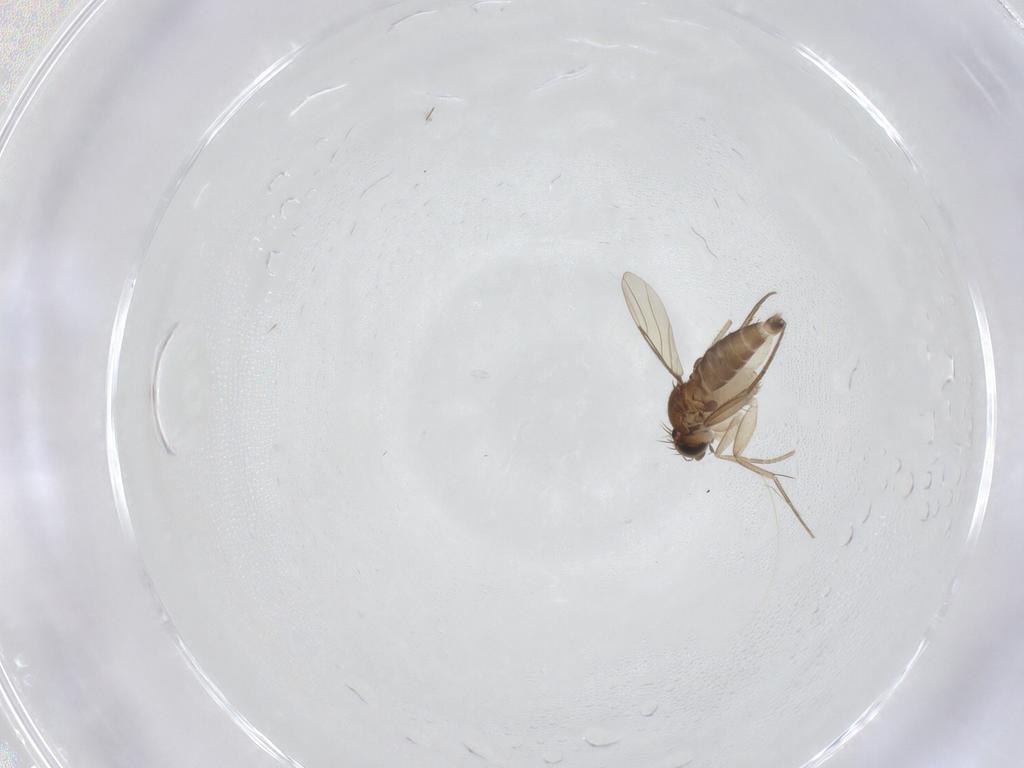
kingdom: Animalia
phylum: Arthropoda
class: Insecta
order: Diptera
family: Phoridae
